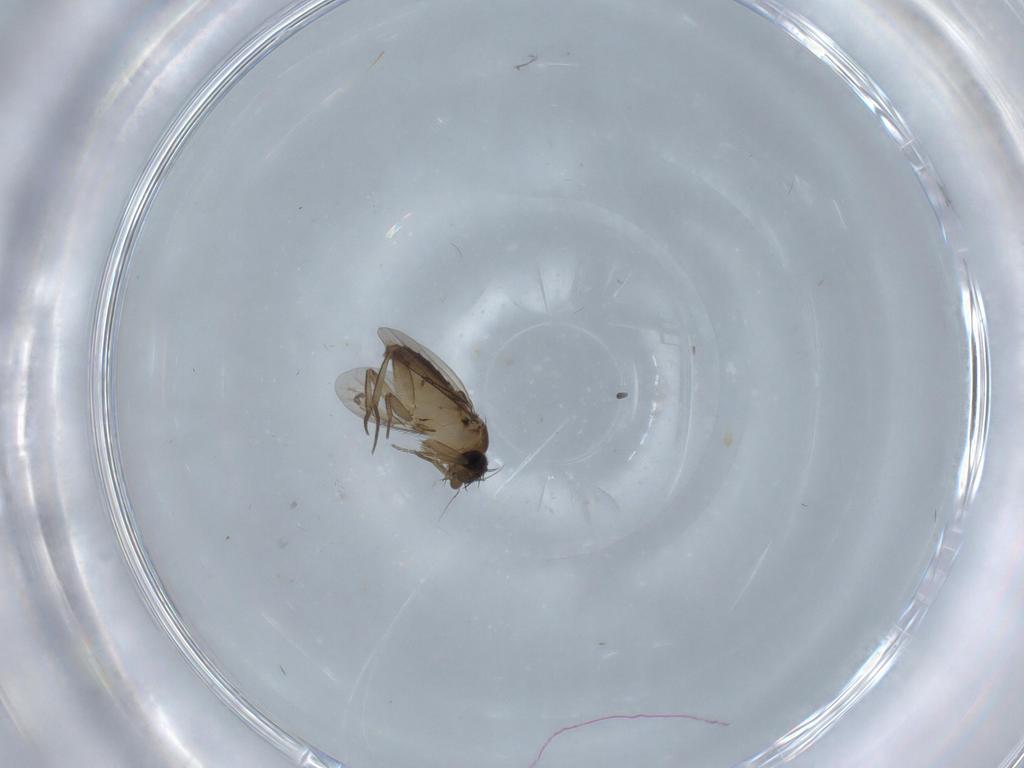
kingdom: Animalia
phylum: Arthropoda
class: Insecta
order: Diptera
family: Phoridae
